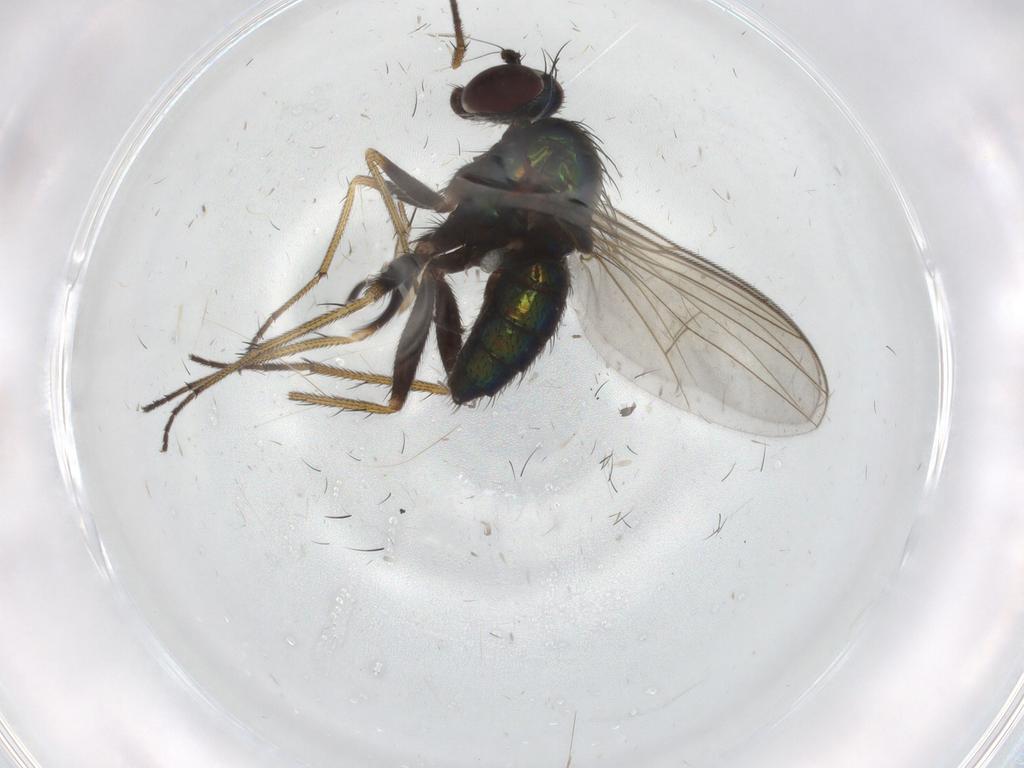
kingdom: Animalia
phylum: Arthropoda
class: Insecta
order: Diptera
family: Dolichopodidae
